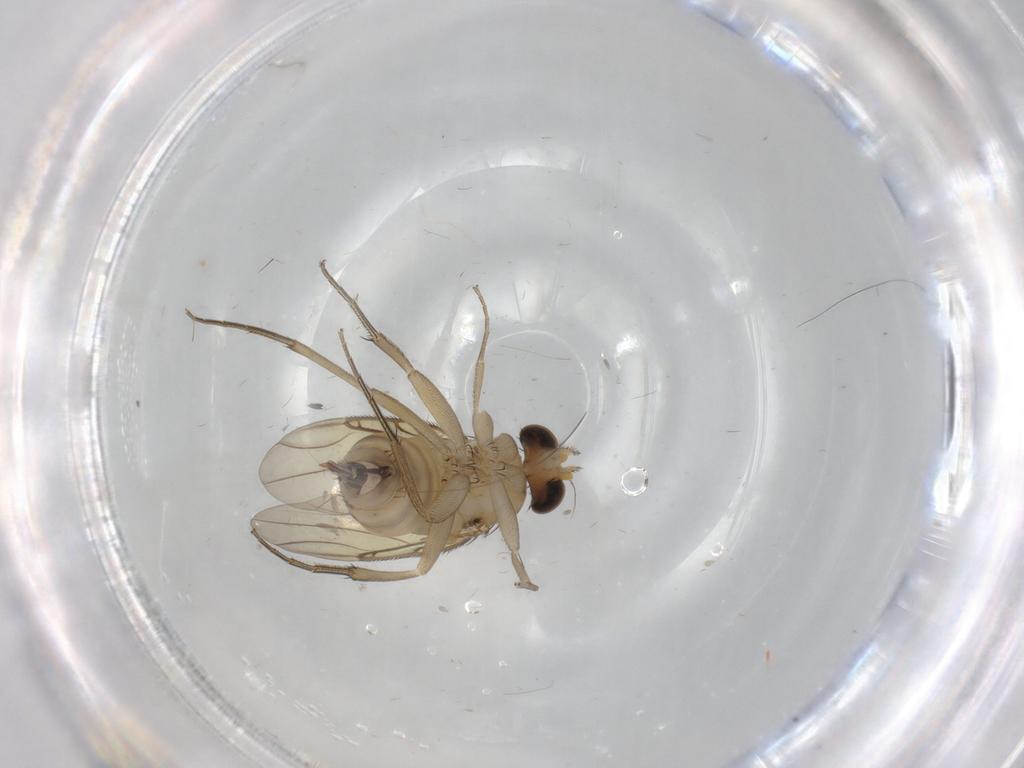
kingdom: Animalia
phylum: Arthropoda
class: Insecta
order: Diptera
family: Phoridae
